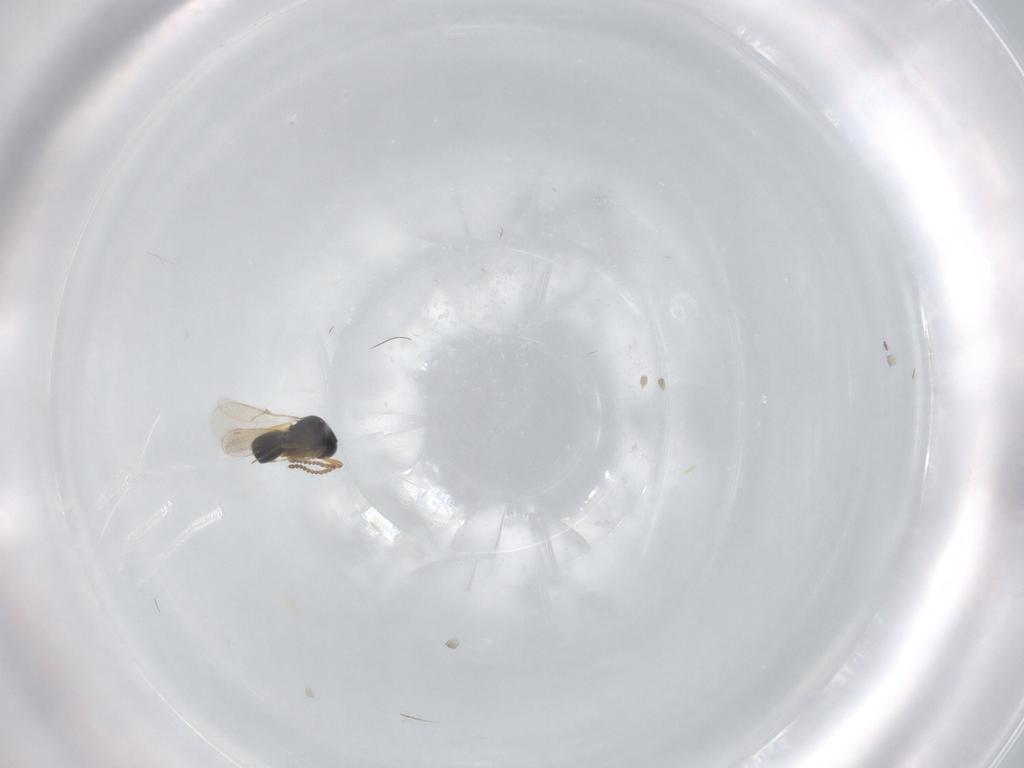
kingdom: Animalia
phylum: Arthropoda
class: Insecta
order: Hymenoptera
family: Scelionidae
